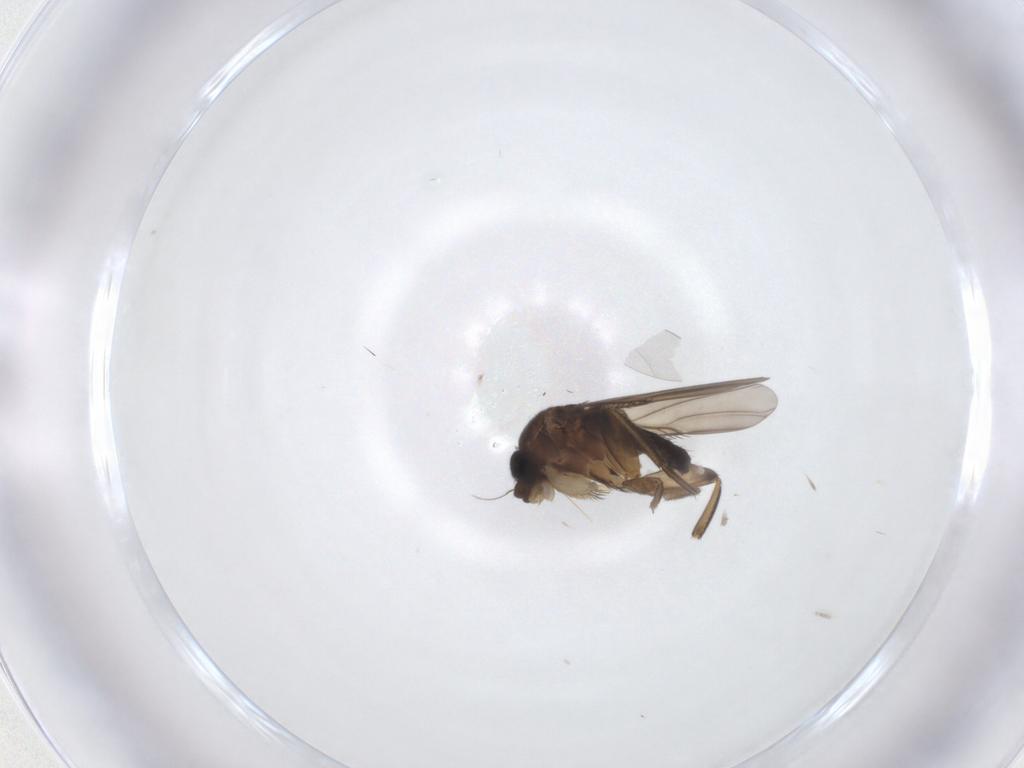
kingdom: Animalia
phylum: Arthropoda
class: Insecta
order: Diptera
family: Phoridae
